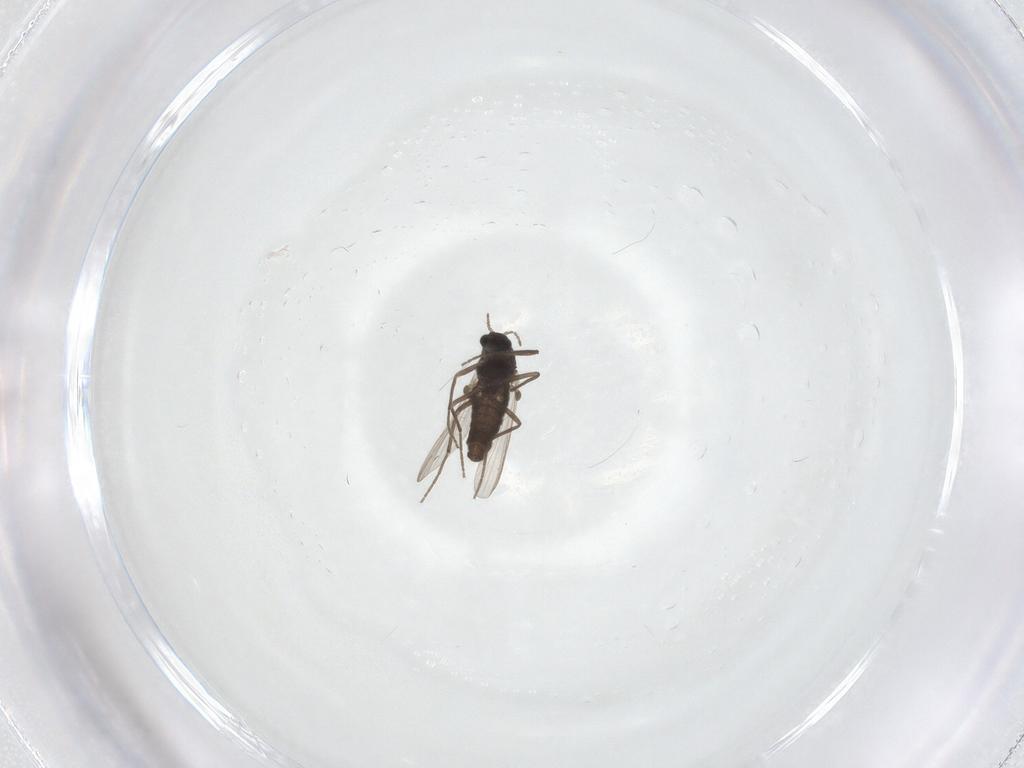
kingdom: Animalia
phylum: Arthropoda
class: Insecta
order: Diptera
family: Chironomidae
